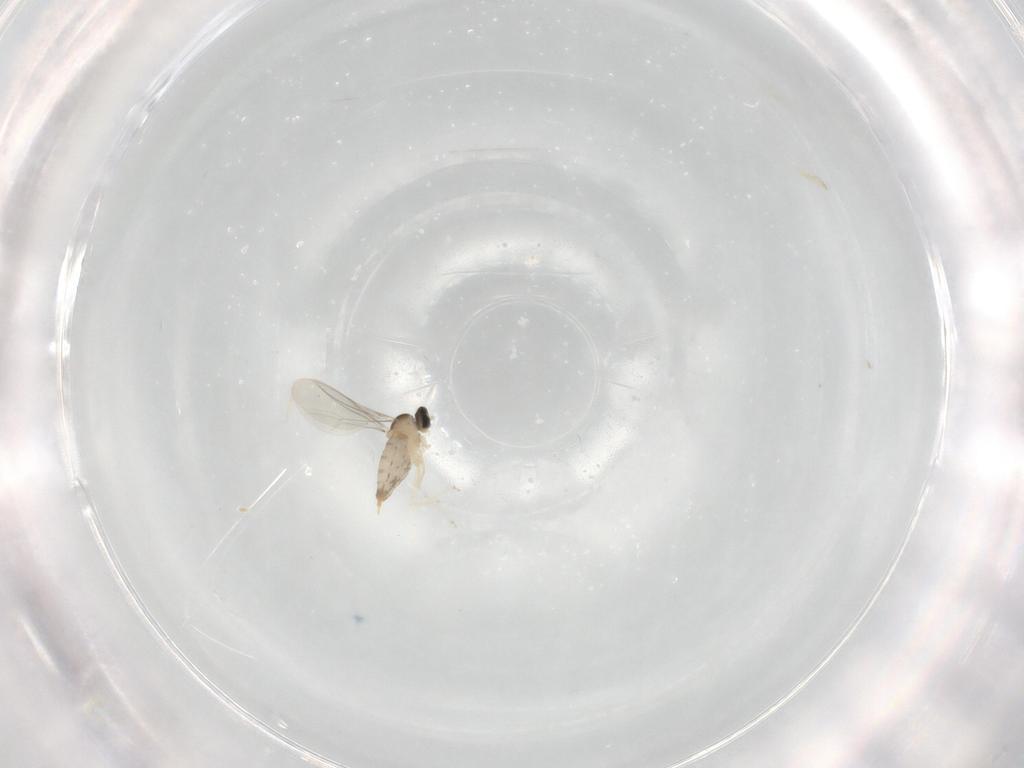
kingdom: Animalia
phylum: Arthropoda
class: Insecta
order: Diptera
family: Cecidomyiidae
